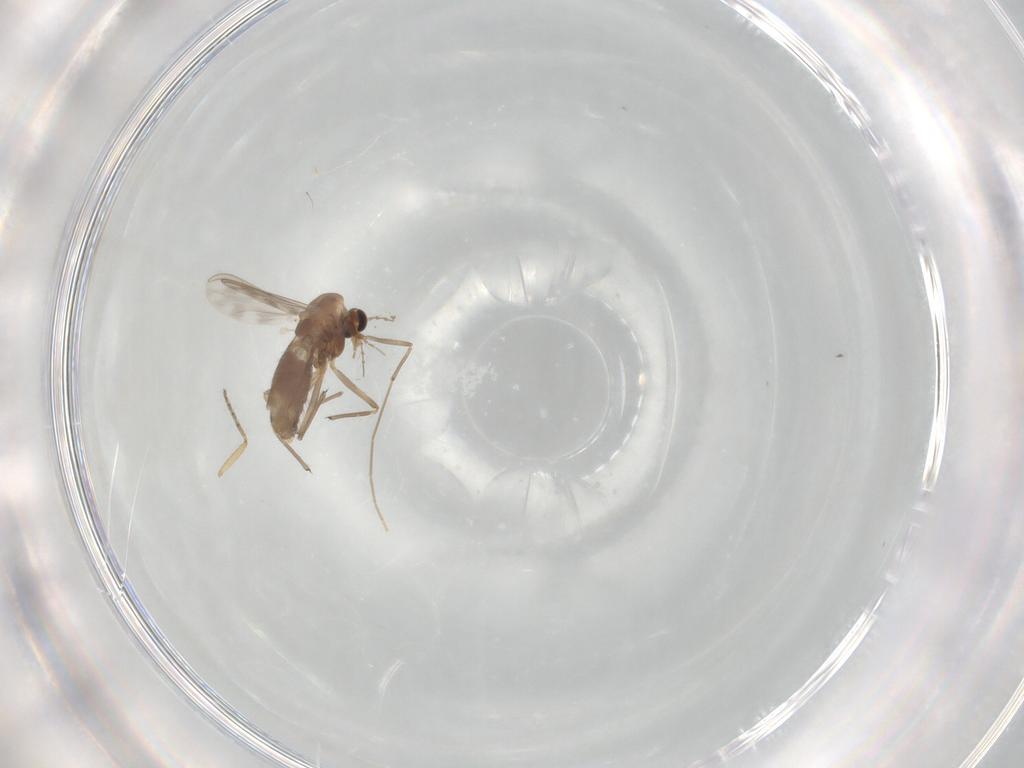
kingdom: Animalia
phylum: Arthropoda
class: Insecta
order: Diptera
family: Chironomidae
